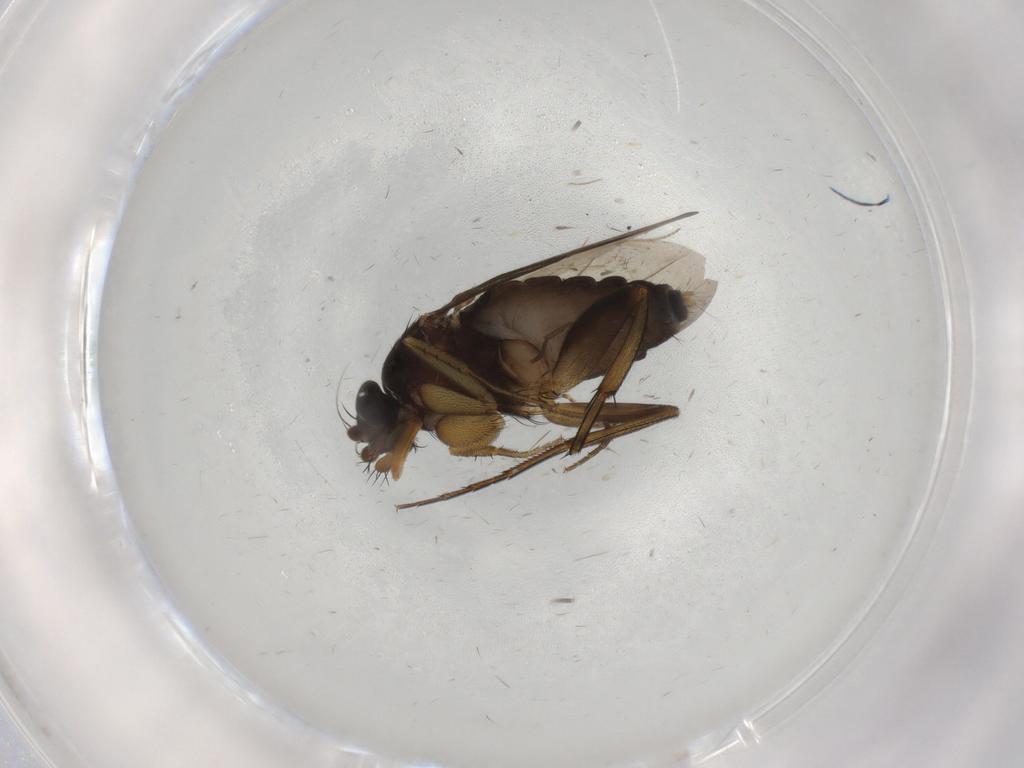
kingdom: Animalia
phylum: Arthropoda
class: Insecta
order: Diptera
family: Phoridae
